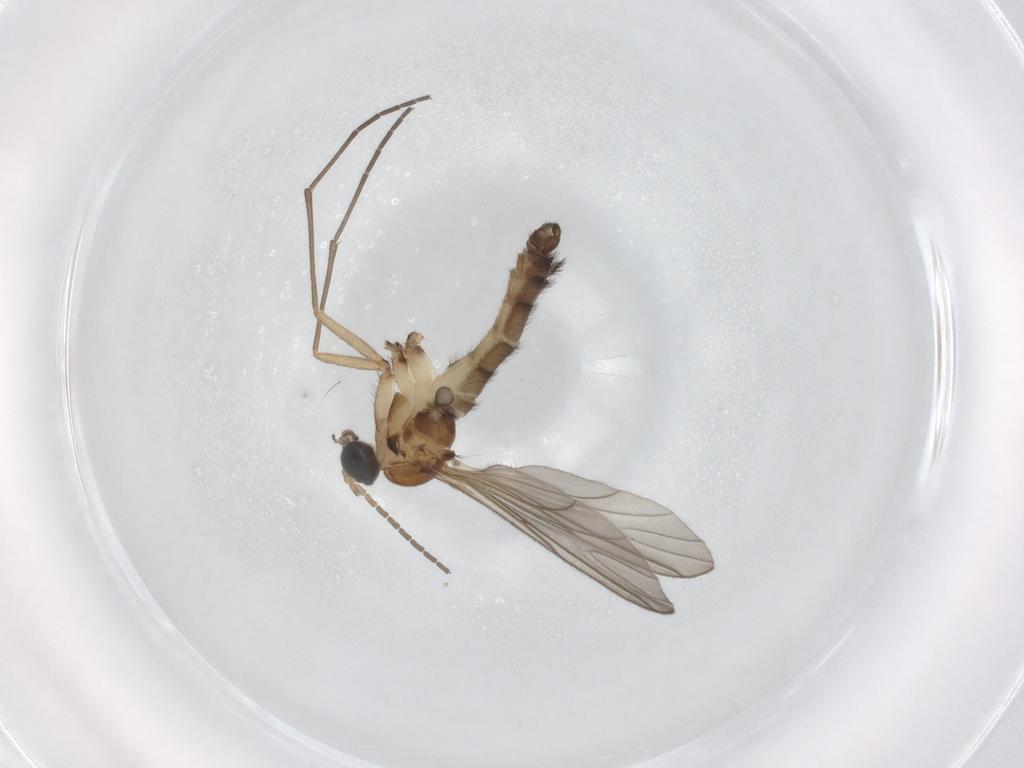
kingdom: Animalia
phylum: Arthropoda
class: Insecta
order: Diptera
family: Sciaridae
